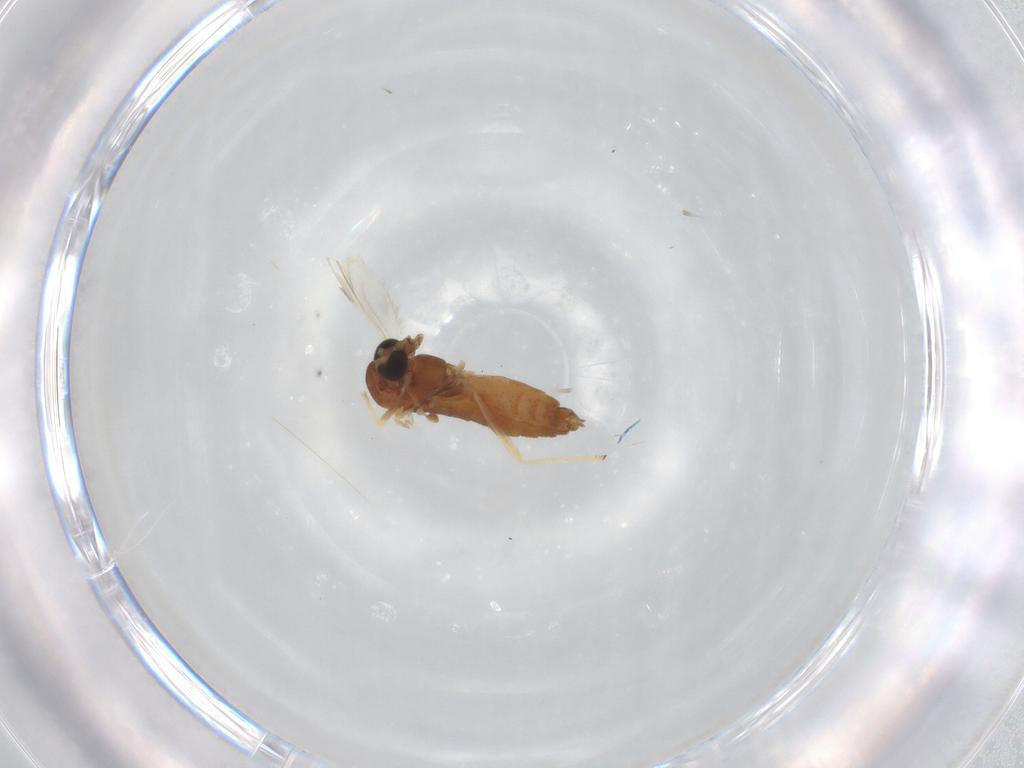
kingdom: Animalia
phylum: Arthropoda
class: Insecta
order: Diptera
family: Chironomidae
